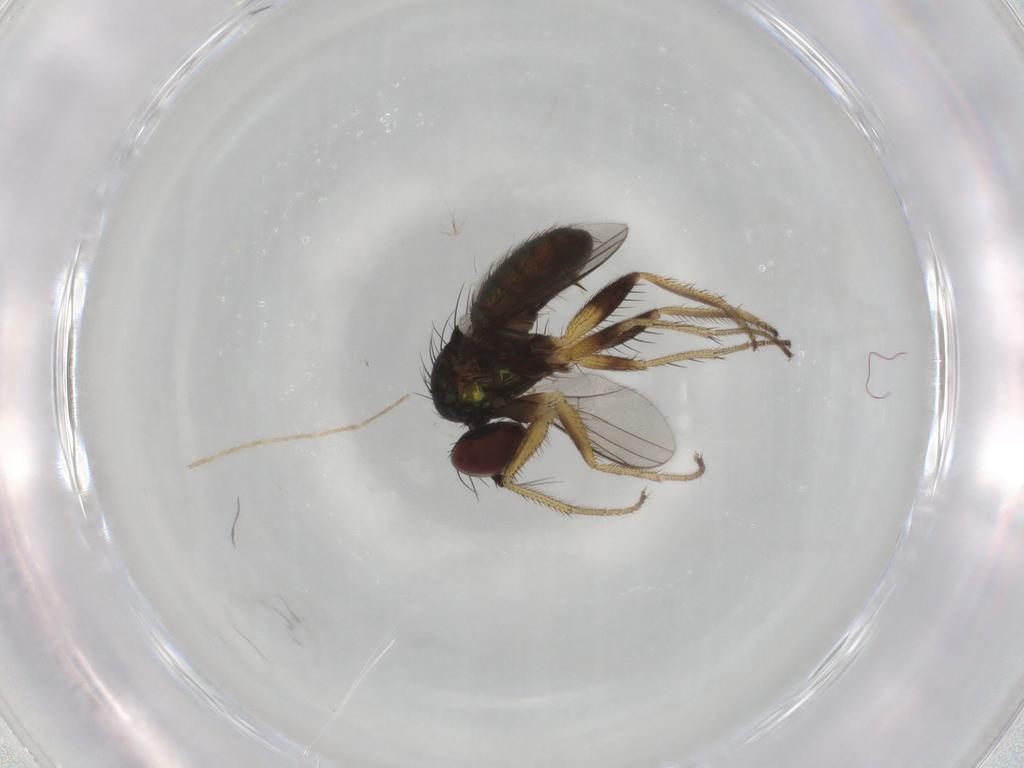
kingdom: Animalia
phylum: Arthropoda
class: Insecta
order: Diptera
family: Dolichopodidae
